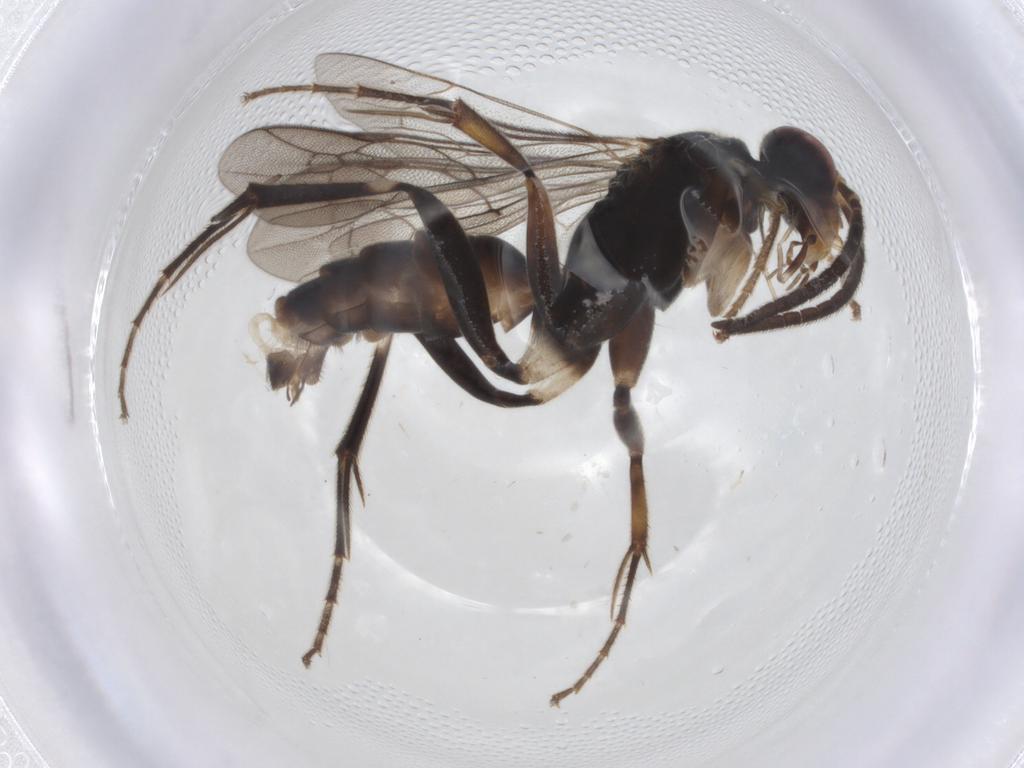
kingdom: Animalia
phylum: Arthropoda
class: Insecta
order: Hymenoptera
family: Pompilidae
